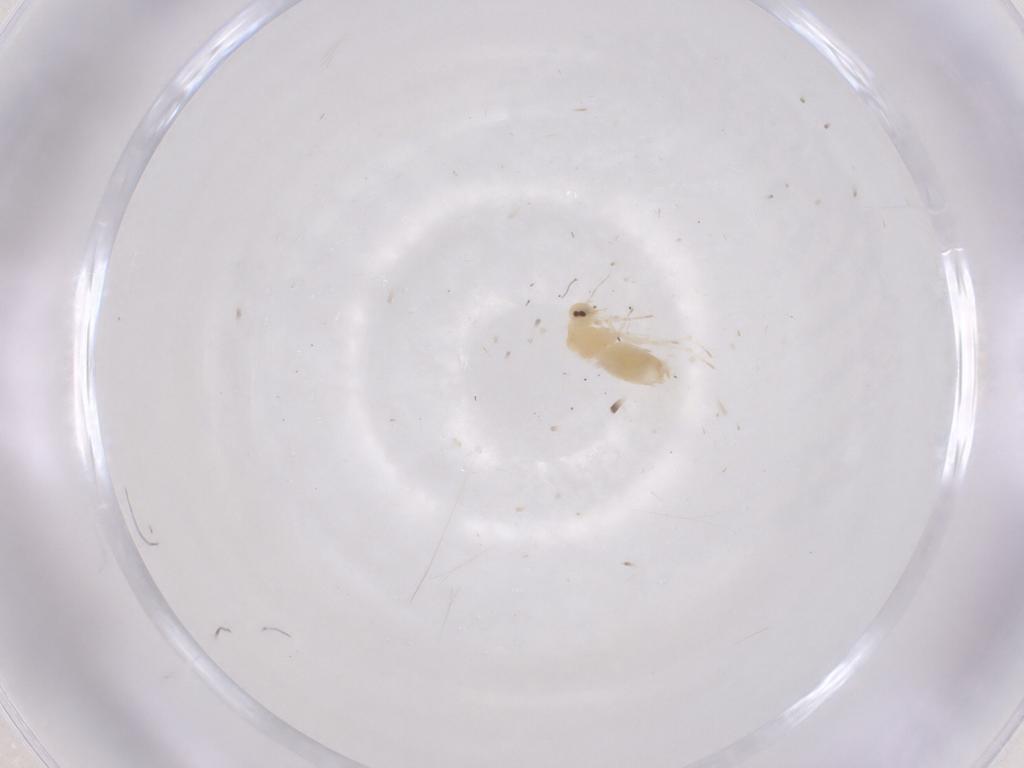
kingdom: Animalia
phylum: Arthropoda
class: Insecta
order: Hemiptera
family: Aleyrodidae
